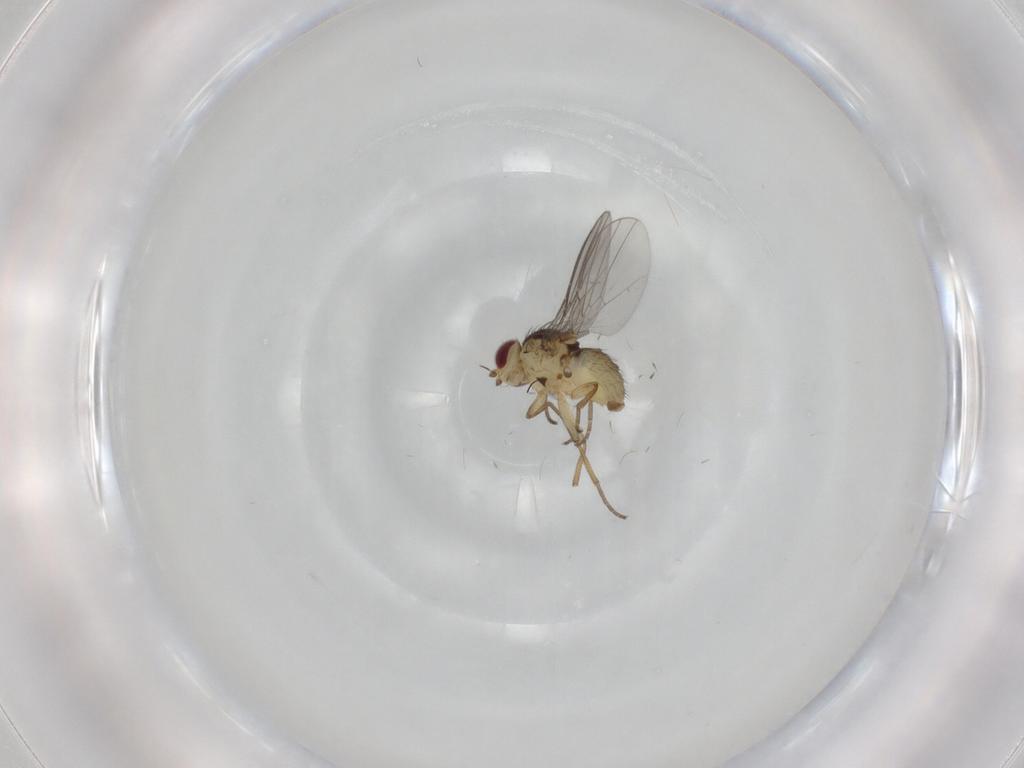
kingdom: Animalia
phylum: Arthropoda
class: Insecta
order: Diptera
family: Agromyzidae
